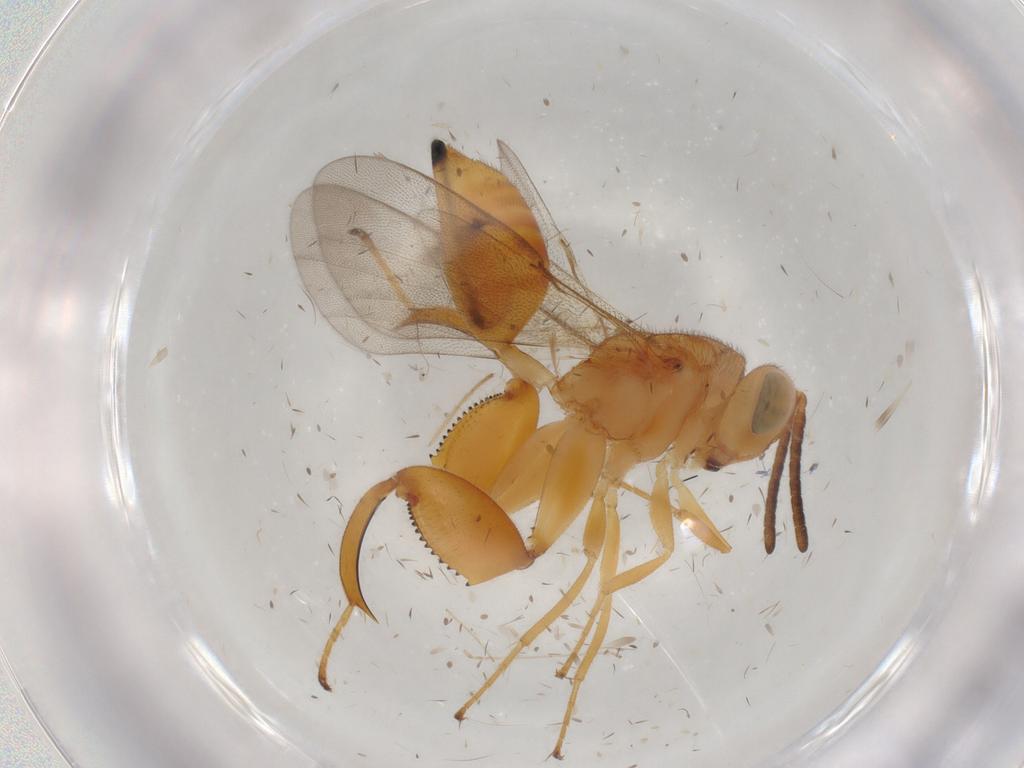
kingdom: Animalia
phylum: Arthropoda
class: Insecta
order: Hymenoptera
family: Chalcididae
